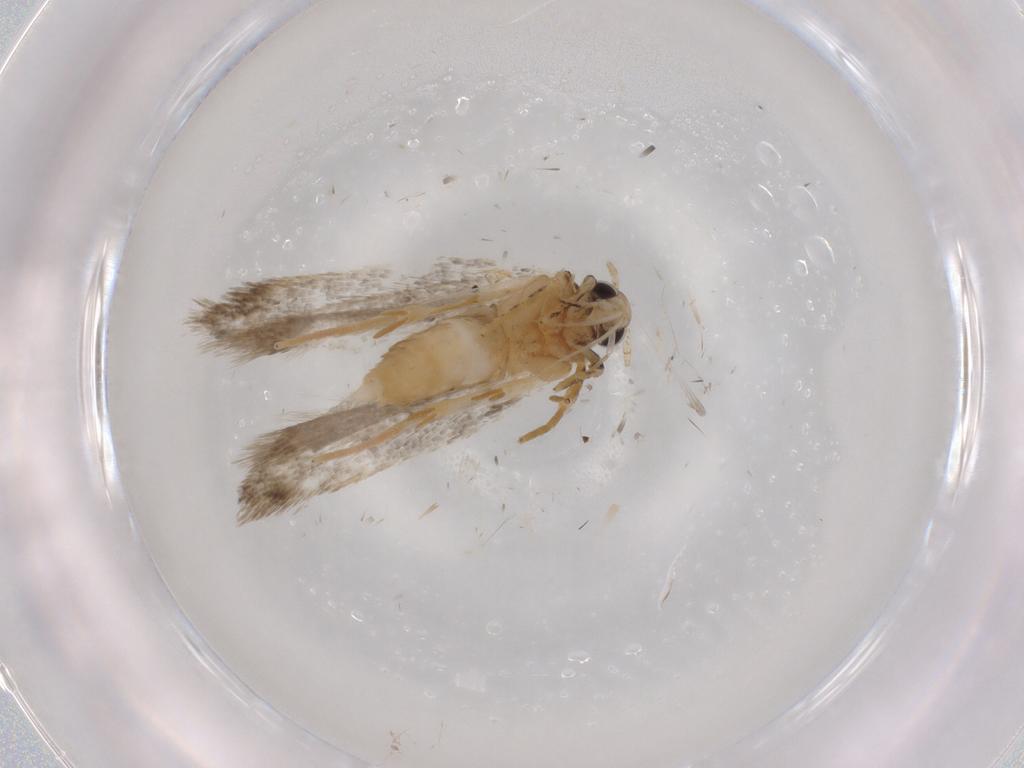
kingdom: Animalia
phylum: Arthropoda
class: Insecta
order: Lepidoptera
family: Autostichidae
